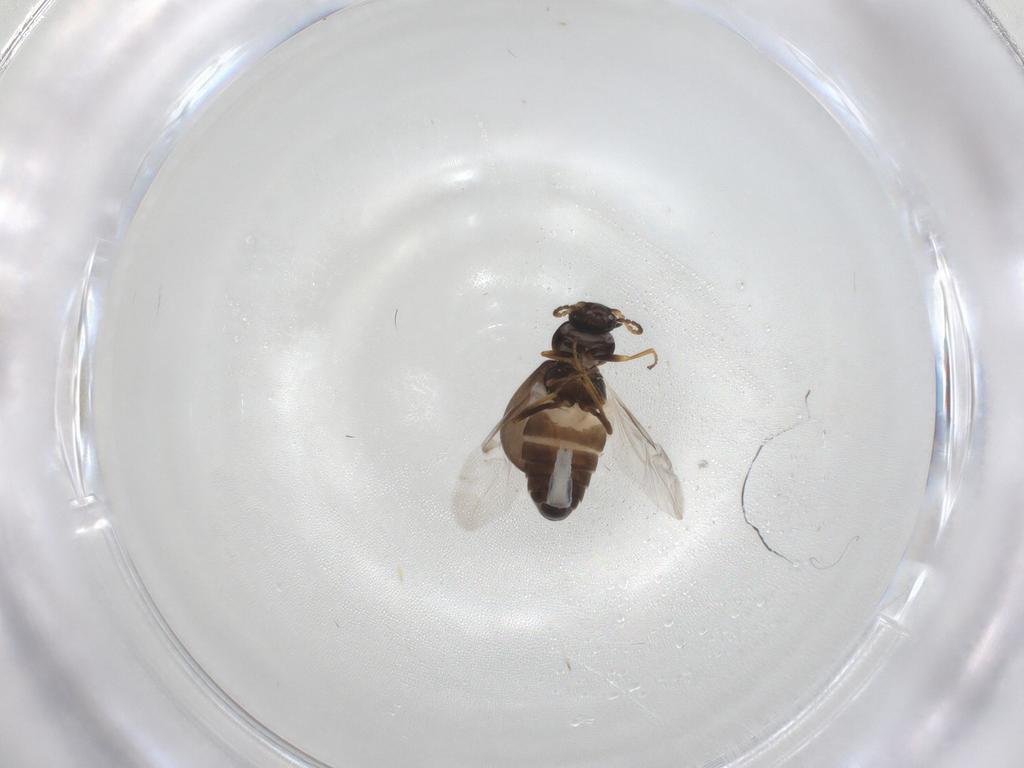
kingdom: Animalia
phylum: Arthropoda
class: Insecta
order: Coleoptera
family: Melyridae
